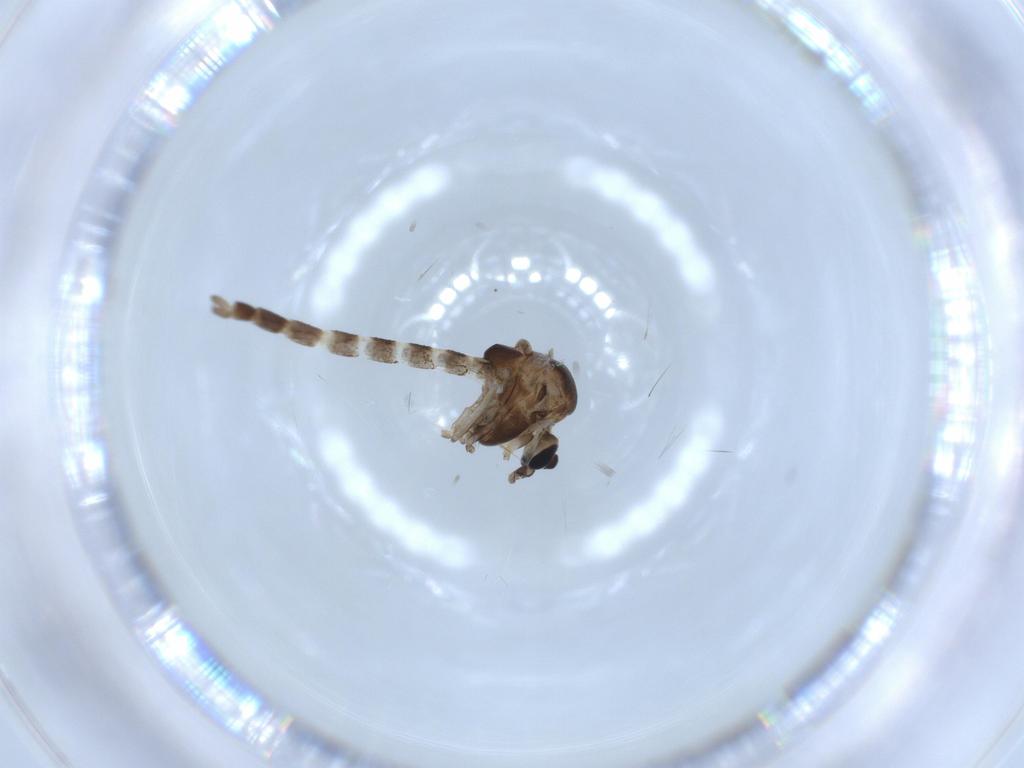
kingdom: Animalia
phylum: Arthropoda
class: Insecta
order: Diptera
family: Chironomidae
